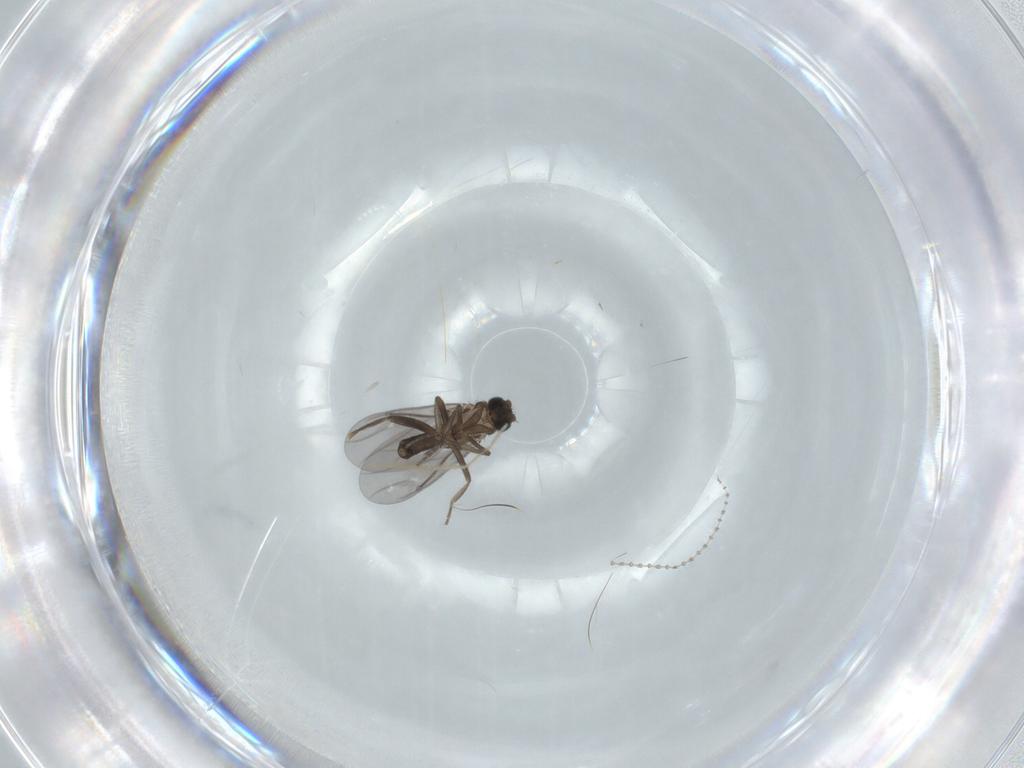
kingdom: Animalia
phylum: Arthropoda
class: Insecta
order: Diptera
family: Cecidomyiidae
